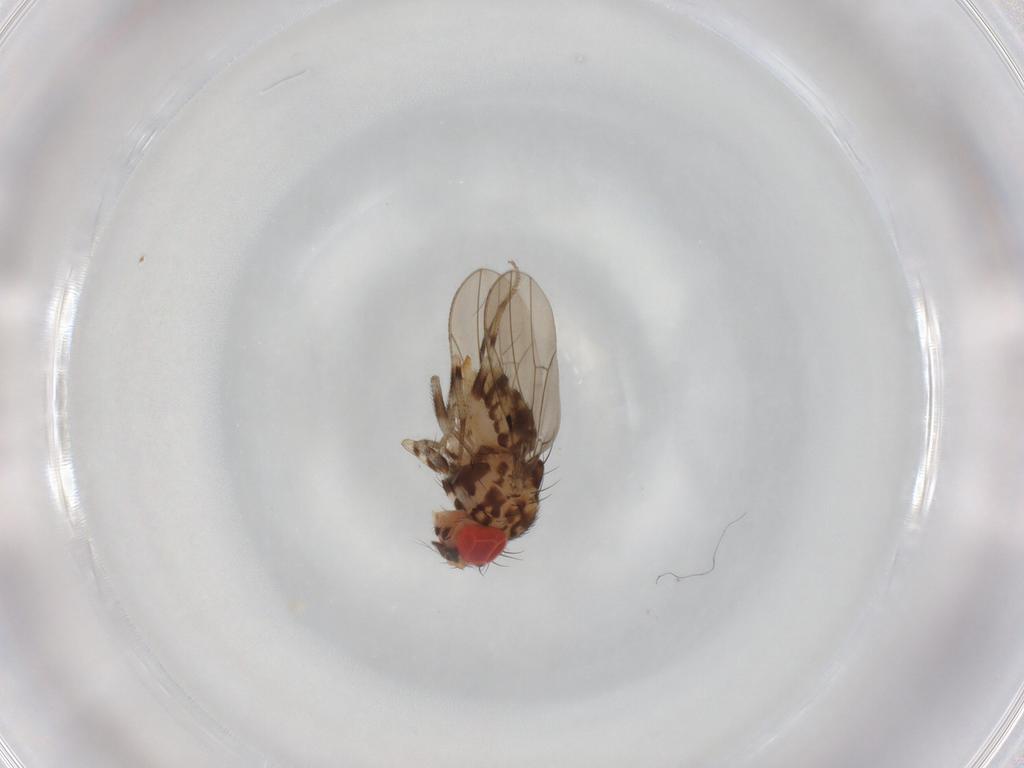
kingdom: Animalia
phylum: Arthropoda
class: Insecta
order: Diptera
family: Drosophilidae
